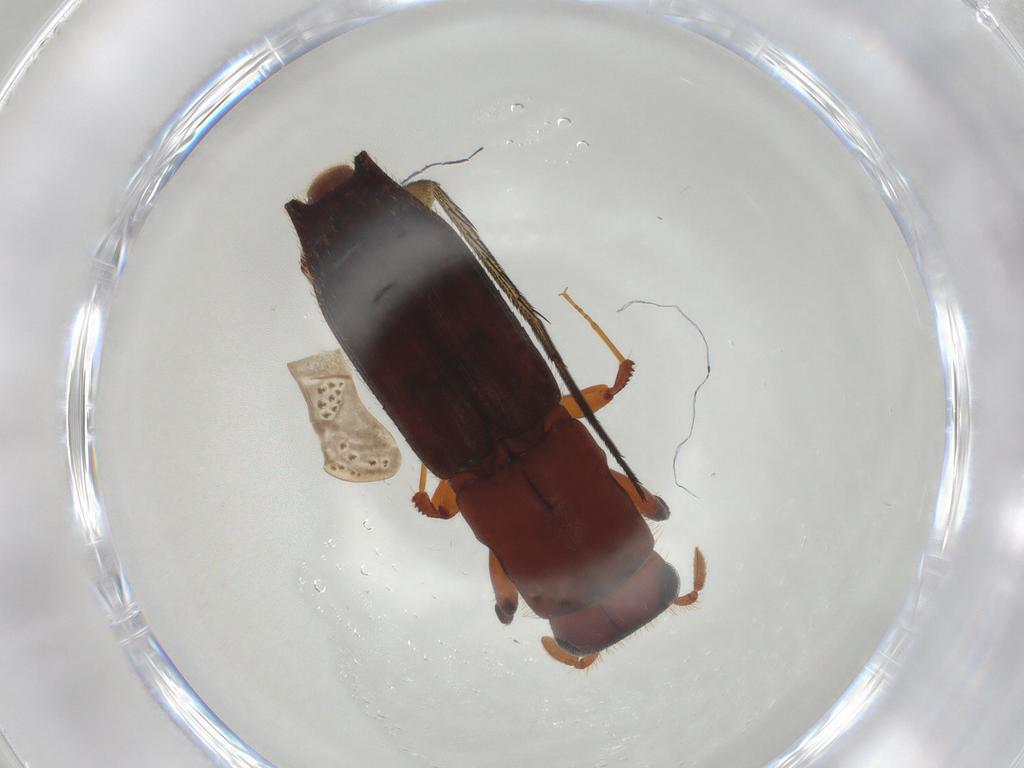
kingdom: Animalia
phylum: Arthropoda
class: Insecta
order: Coleoptera
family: Curculionidae
